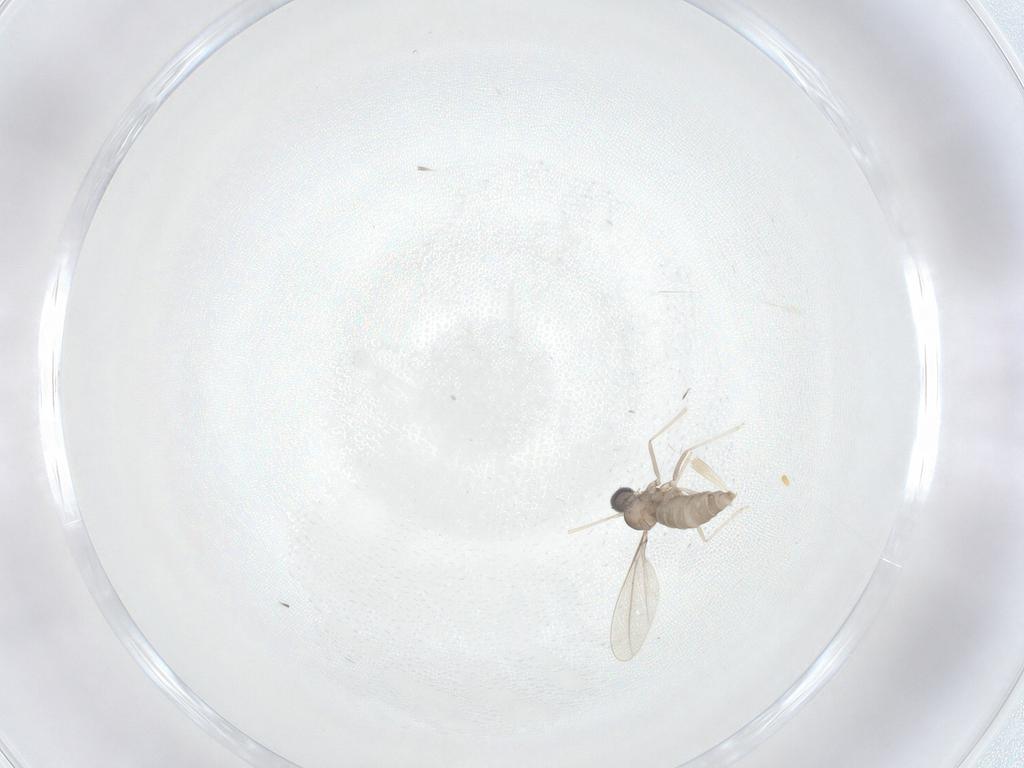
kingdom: Animalia
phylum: Arthropoda
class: Insecta
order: Diptera
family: Cecidomyiidae
